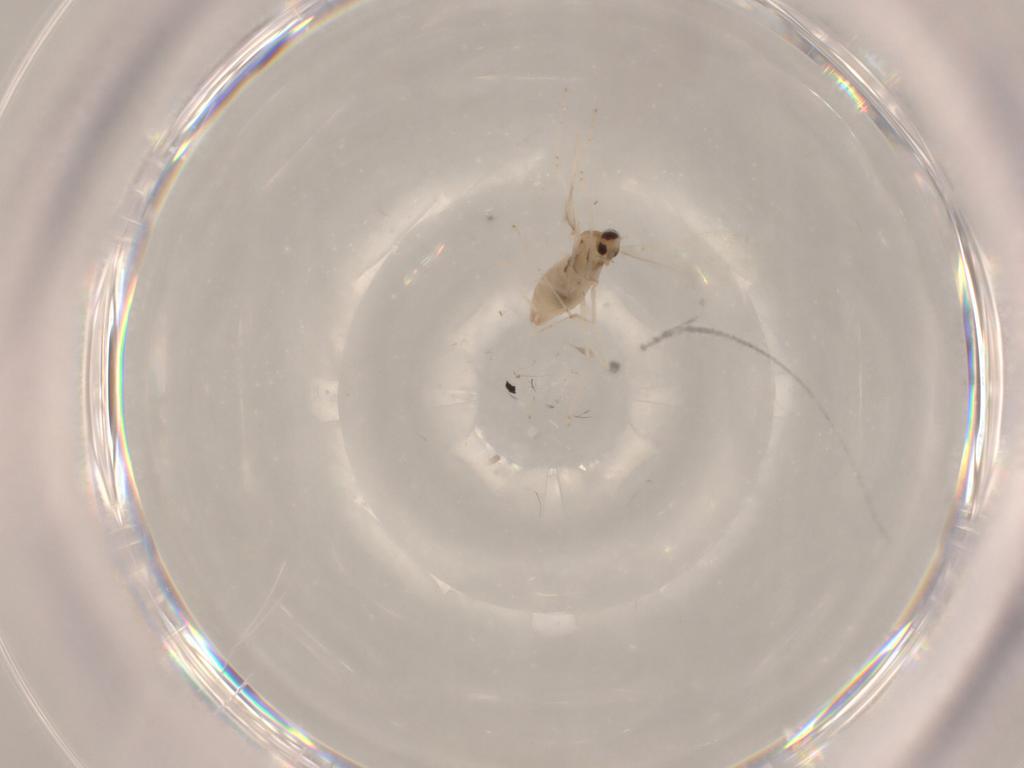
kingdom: Animalia
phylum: Arthropoda
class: Insecta
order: Diptera
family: Cecidomyiidae
